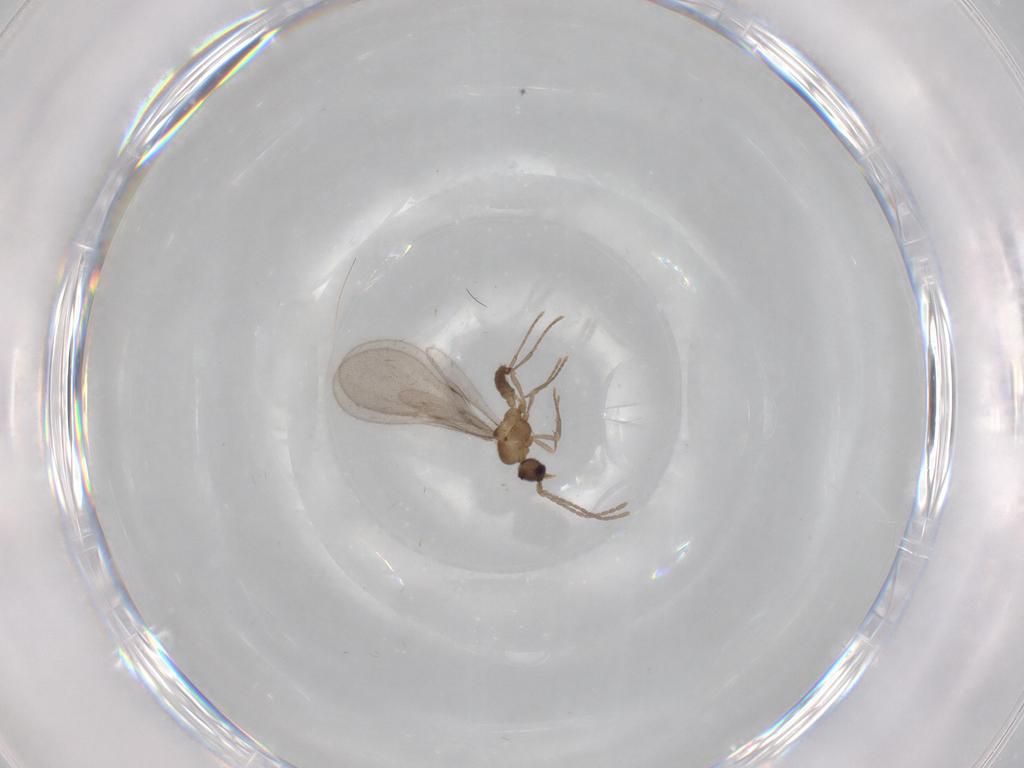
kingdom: Animalia
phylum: Arthropoda
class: Insecta
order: Hymenoptera
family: Formicidae
